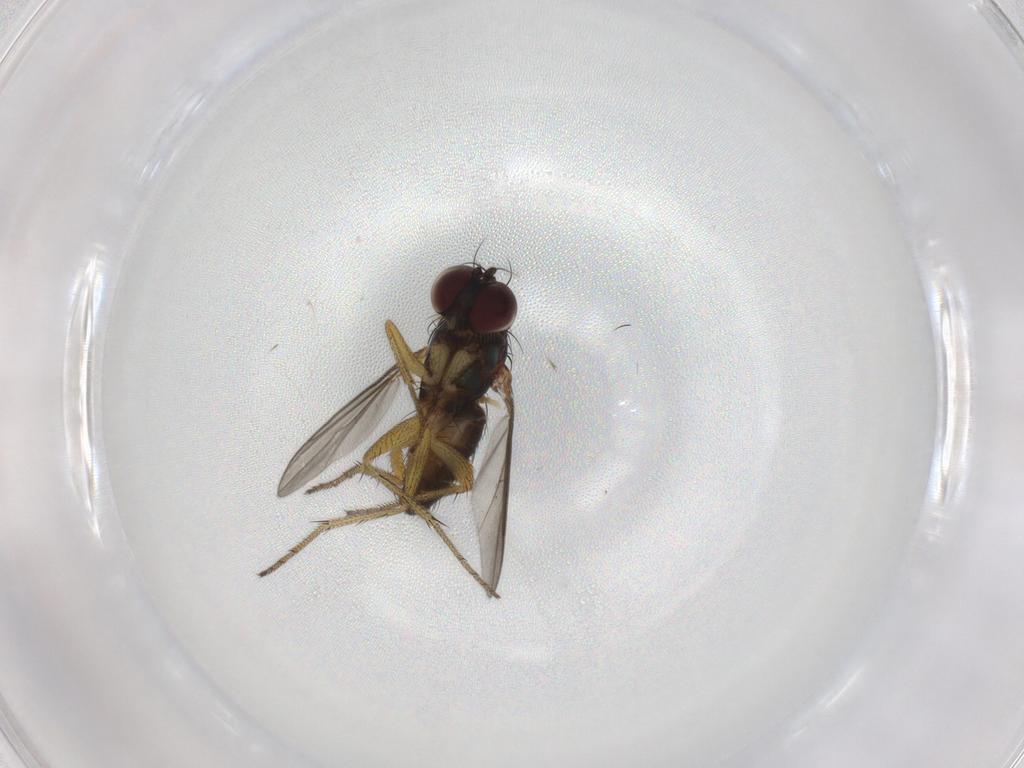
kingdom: Animalia
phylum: Arthropoda
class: Insecta
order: Diptera
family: Dolichopodidae
